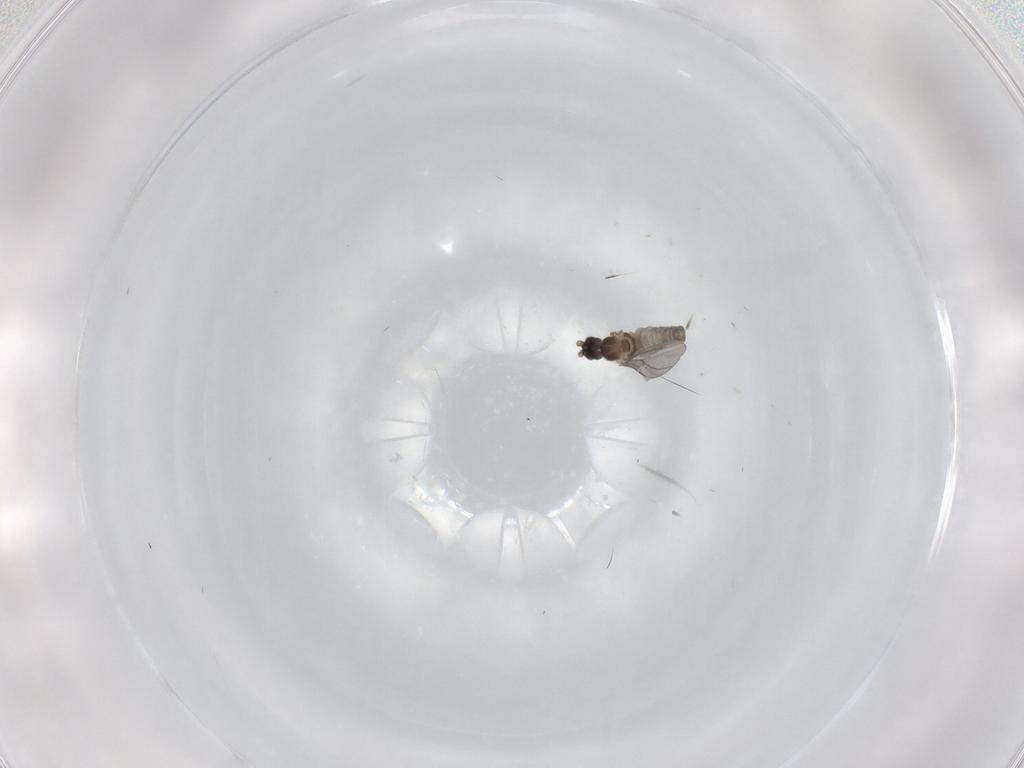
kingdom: Animalia
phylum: Arthropoda
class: Insecta
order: Diptera
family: Cecidomyiidae
